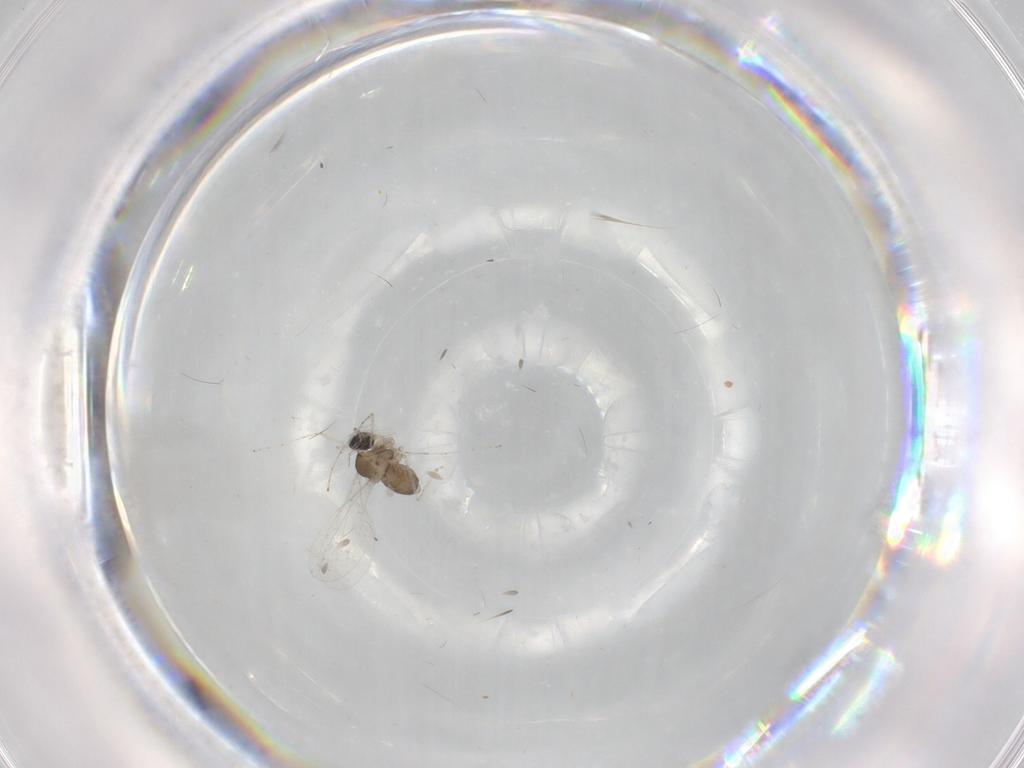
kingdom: Animalia
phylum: Arthropoda
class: Insecta
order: Diptera
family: Cecidomyiidae
